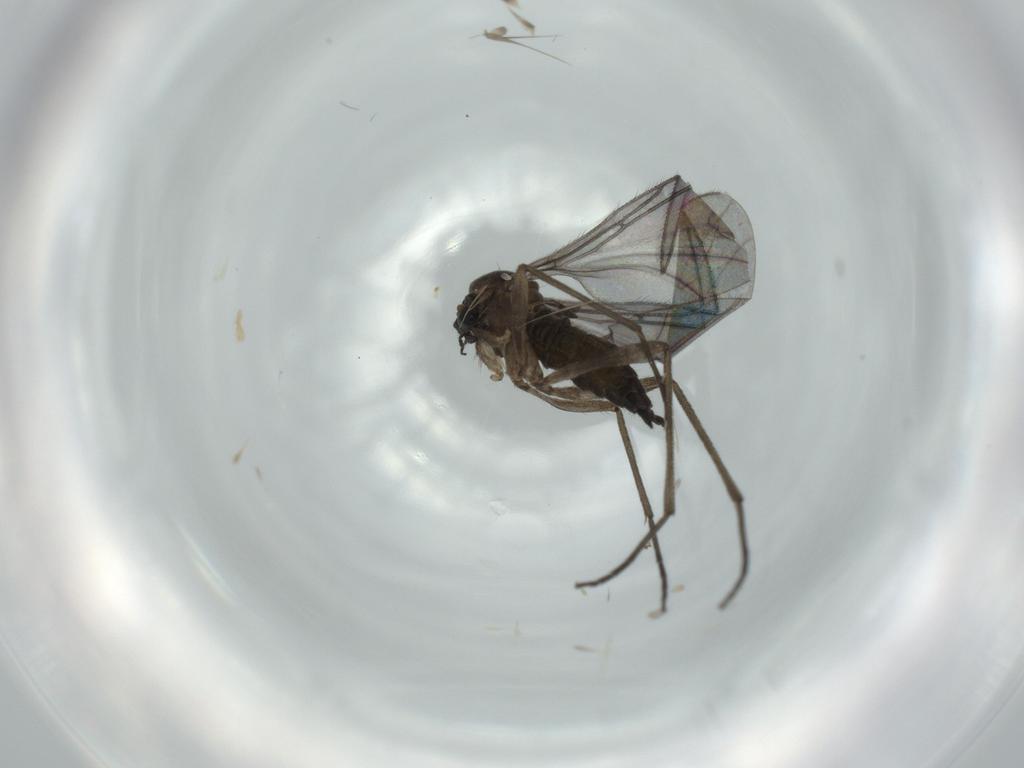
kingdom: Animalia
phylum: Arthropoda
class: Insecta
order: Diptera
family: Sciaridae
